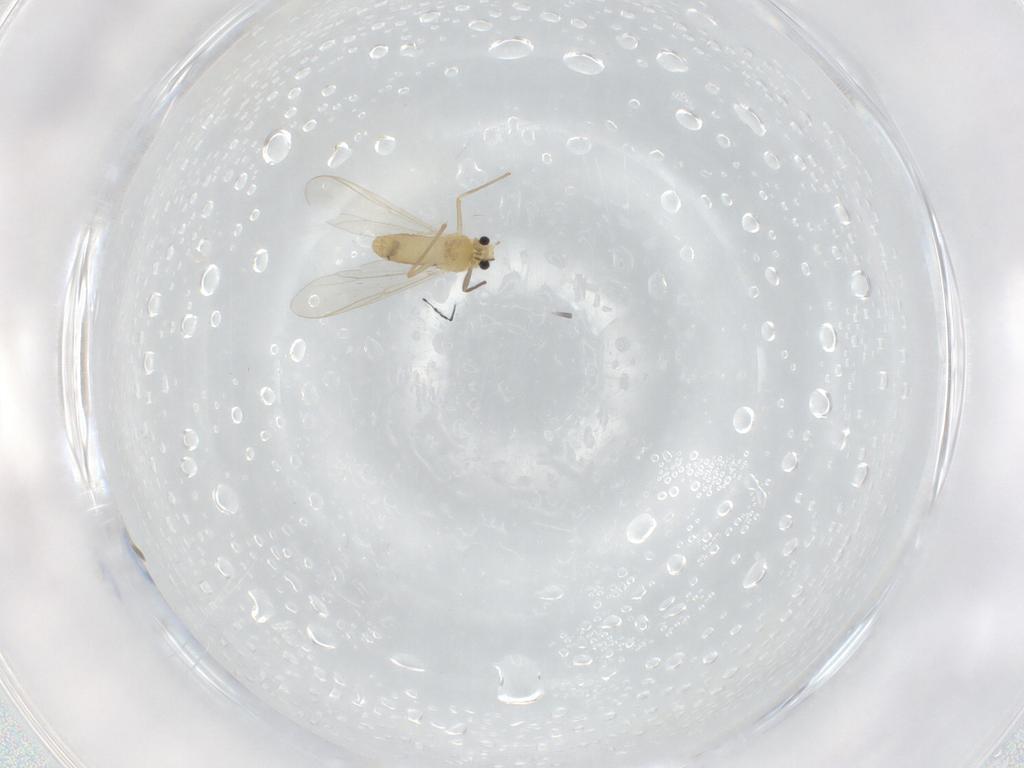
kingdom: Animalia
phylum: Arthropoda
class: Insecta
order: Diptera
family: Chironomidae
